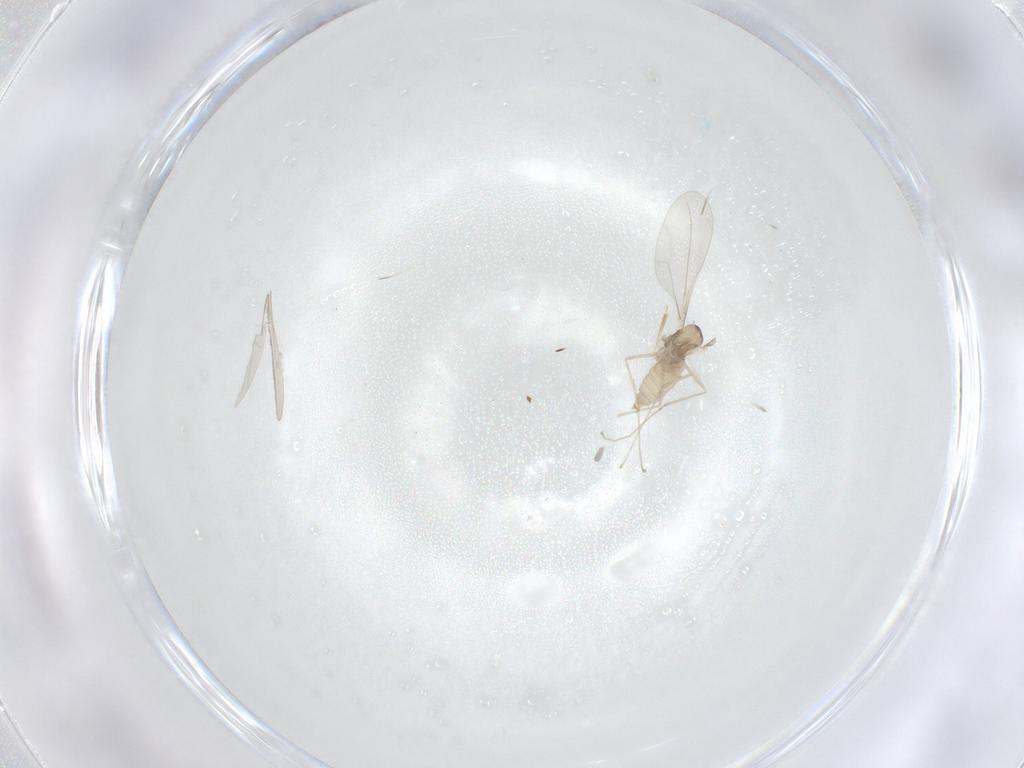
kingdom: Animalia
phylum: Arthropoda
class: Insecta
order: Diptera
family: Cecidomyiidae
